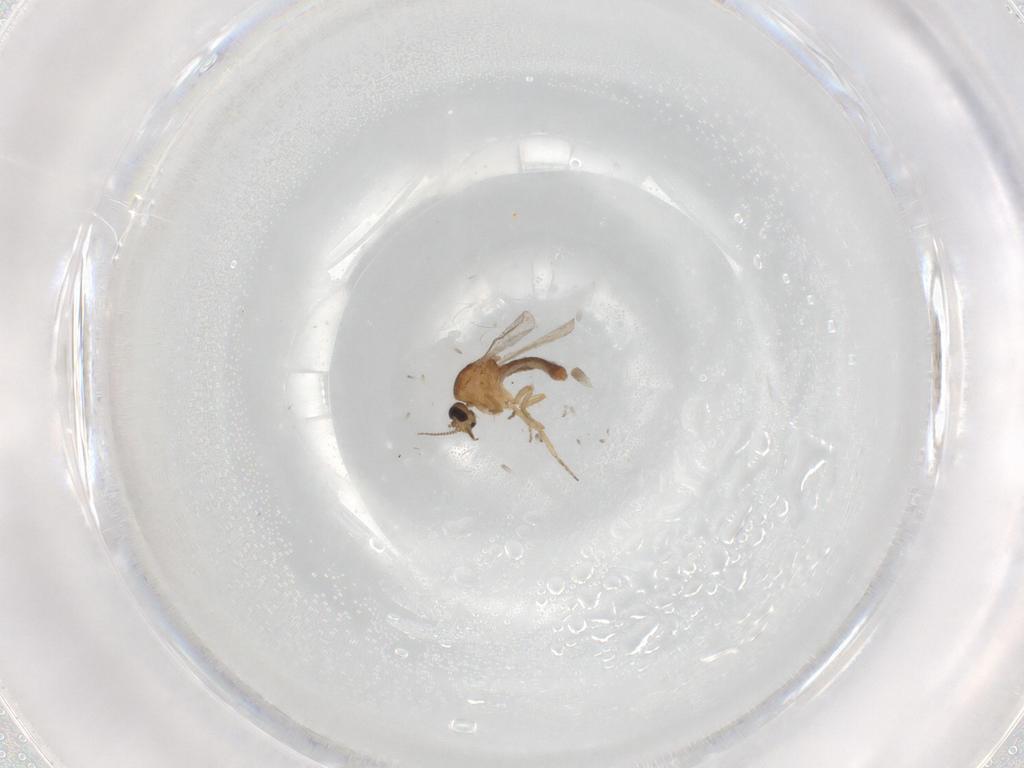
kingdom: Animalia
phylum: Arthropoda
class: Insecta
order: Diptera
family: Ceratopogonidae
